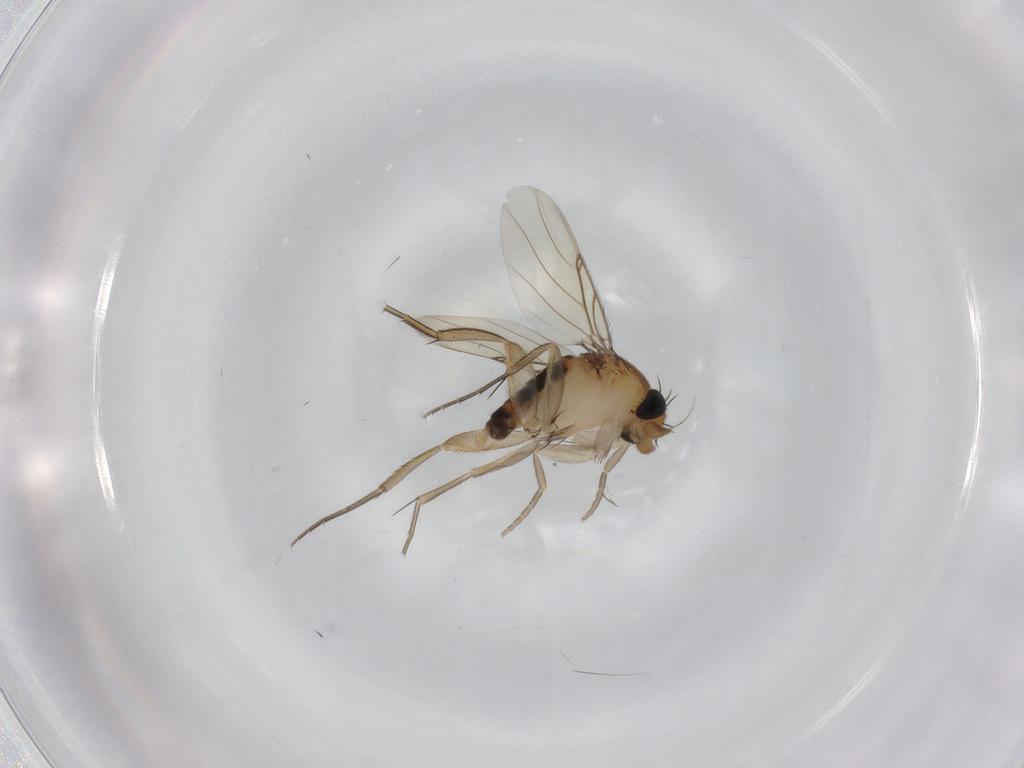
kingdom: Animalia
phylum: Arthropoda
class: Insecta
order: Diptera
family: Phoridae
